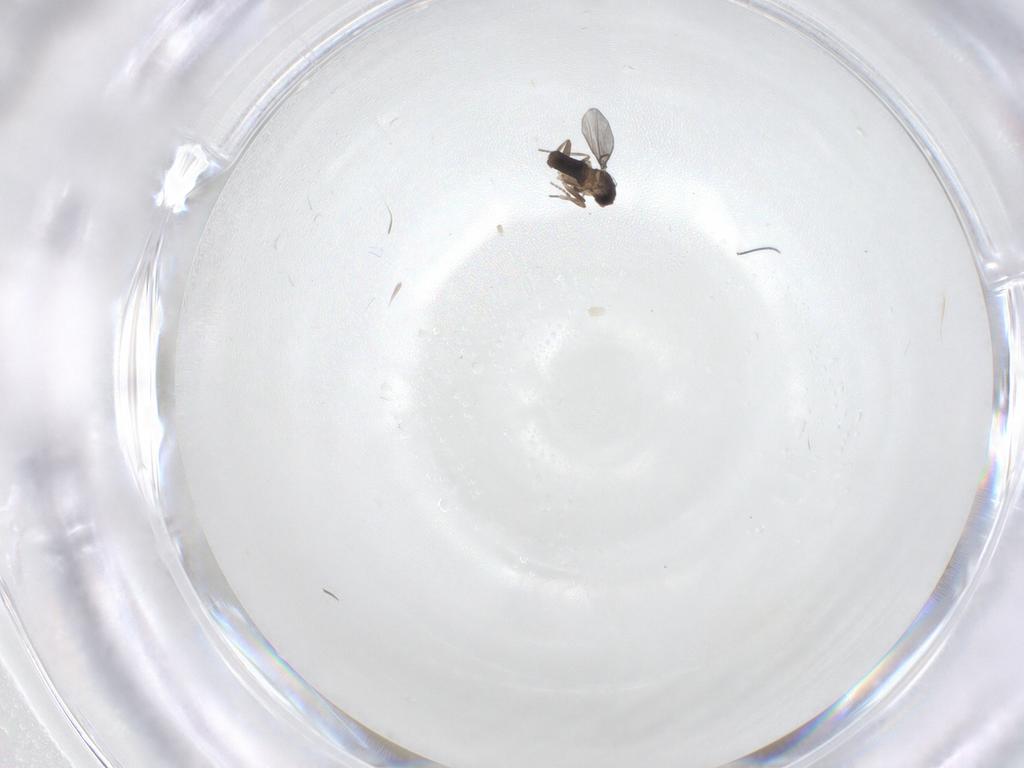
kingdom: Animalia
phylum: Arthropoda
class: Insecta
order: Diptera
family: Phoridae
